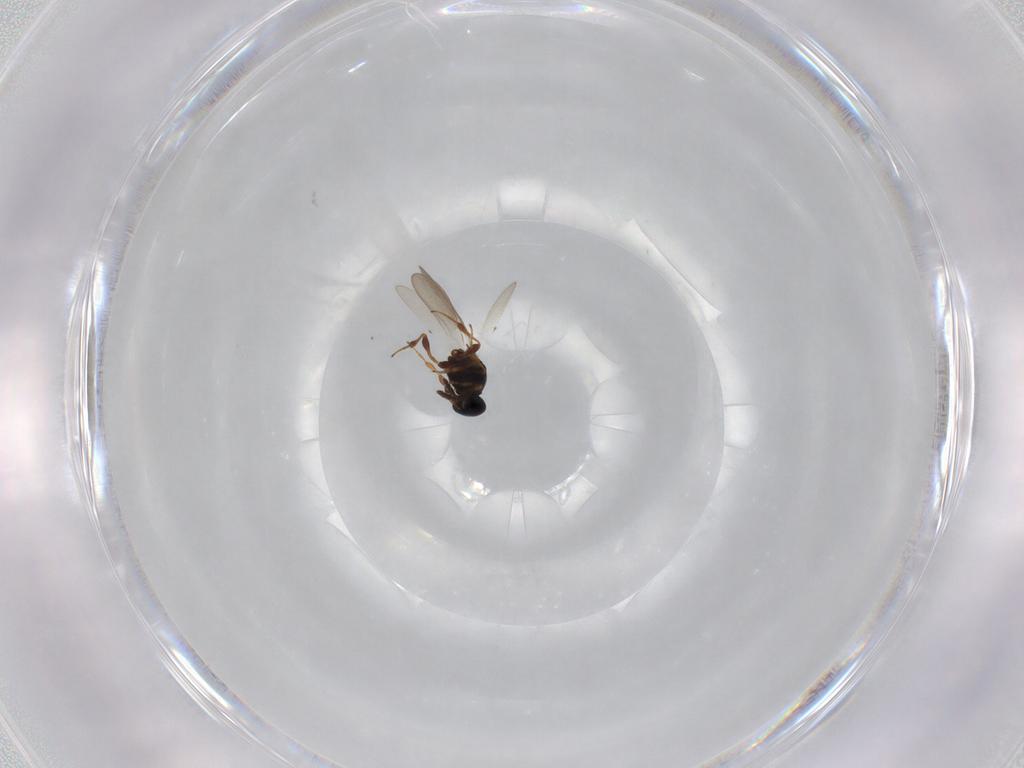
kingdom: Animalia
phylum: Arthropoda
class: Insecta
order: Hymenoptera
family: Platygastridae
